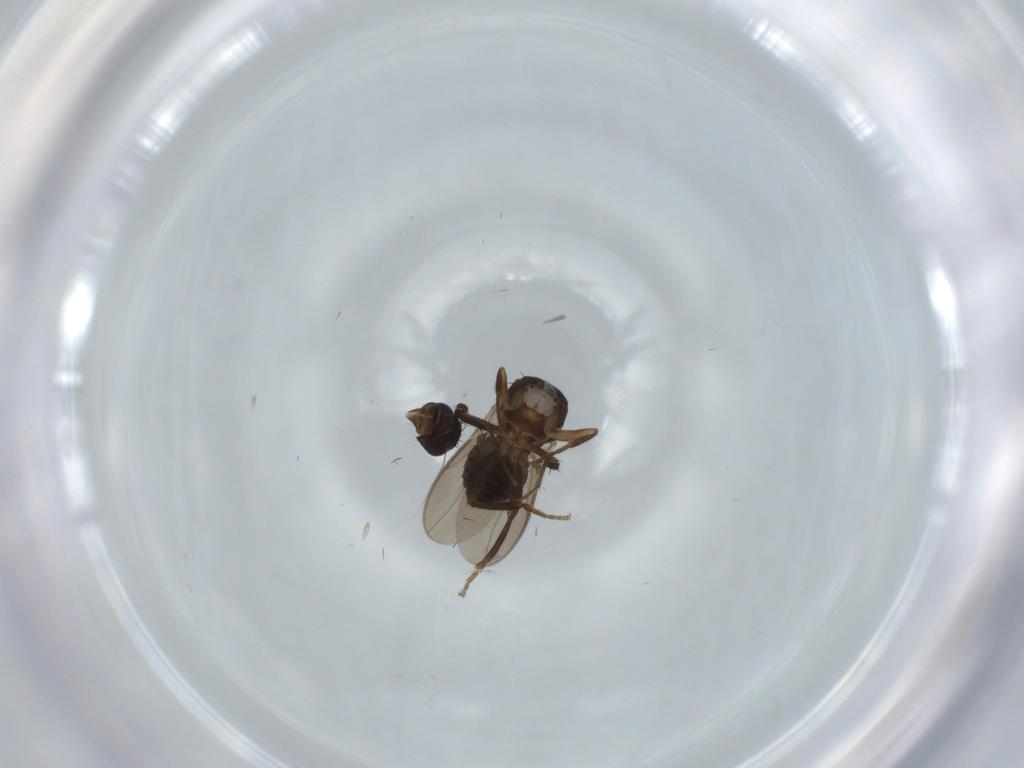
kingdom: Animalia
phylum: Arthropoda
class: Insecta
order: Diptera
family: Sphaeroceridae
